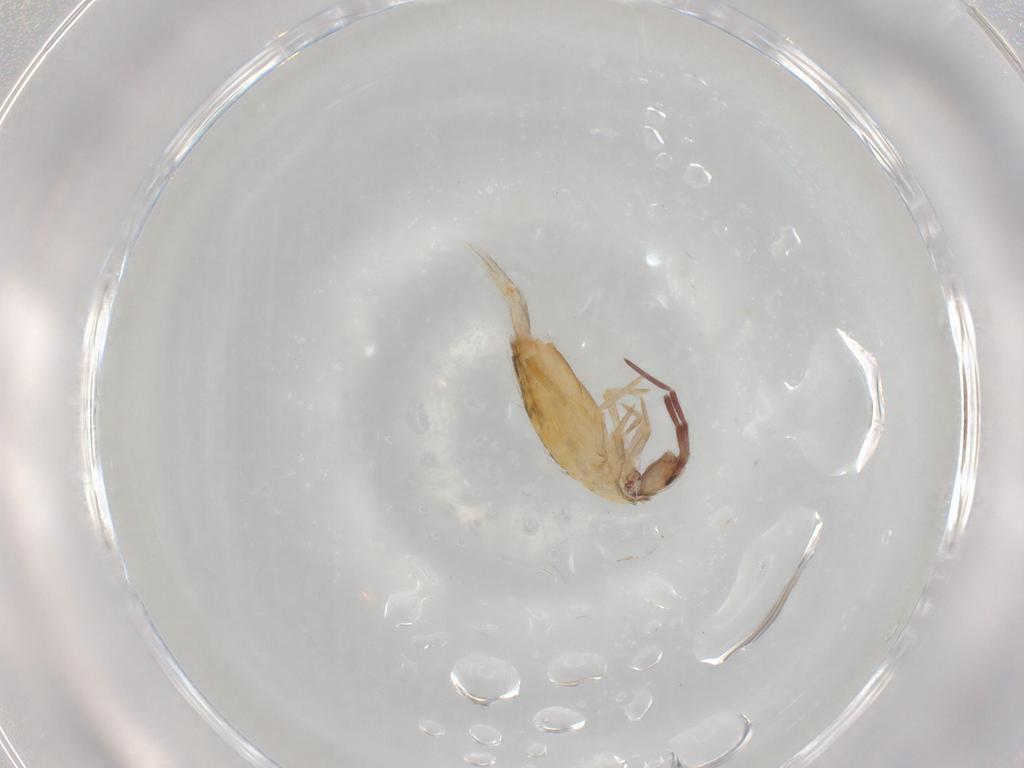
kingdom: Animalia
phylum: Arthropoda
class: Collembola
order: Entomobryomorpha
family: Entomobryidae
